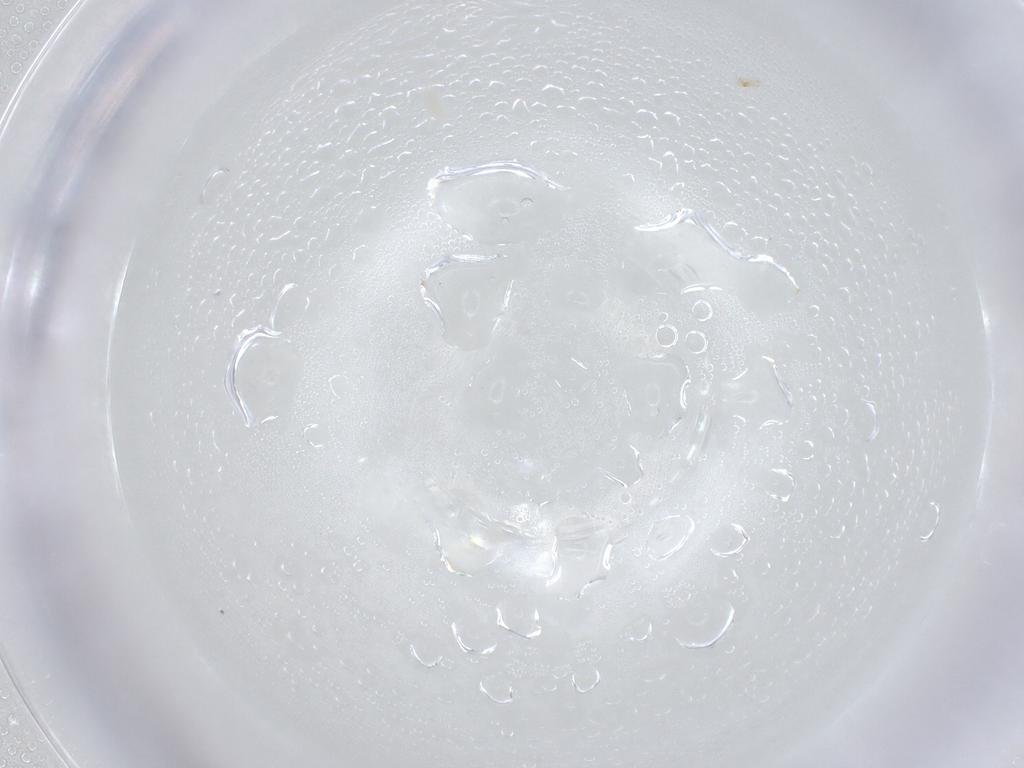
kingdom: Animalia
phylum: Arthropoda
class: Arachnida
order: Trombidiformes
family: Eupodidae
